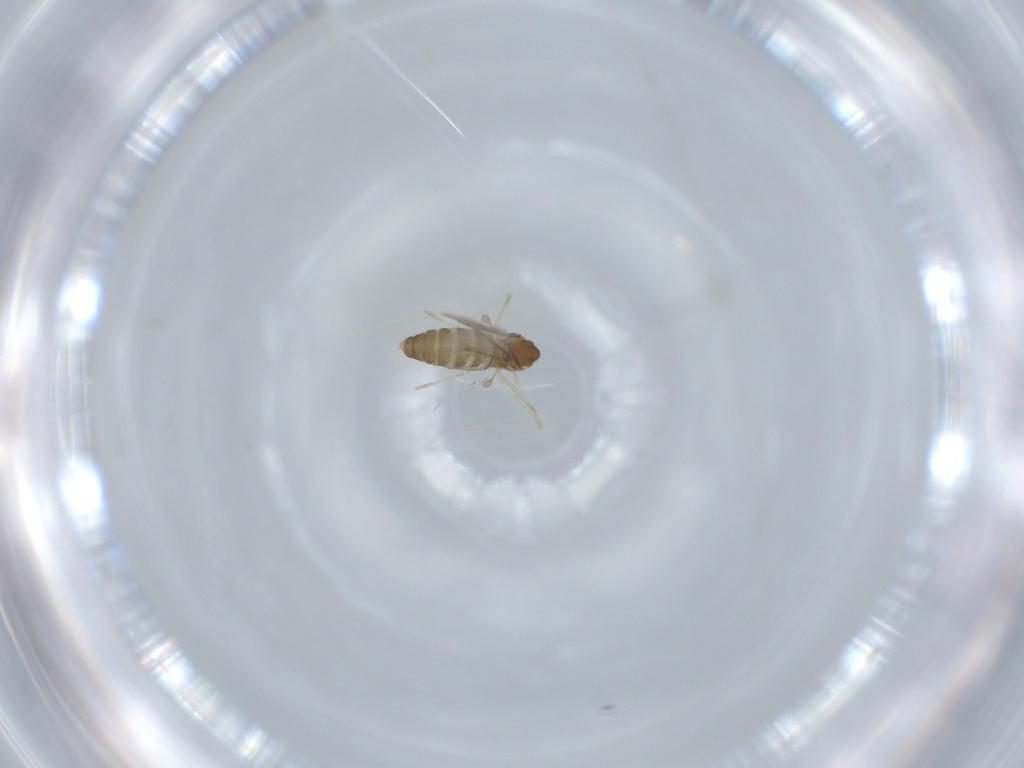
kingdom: Animalia
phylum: Arthropoda
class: Insecta
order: Diptera
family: Cecidomyiidae
